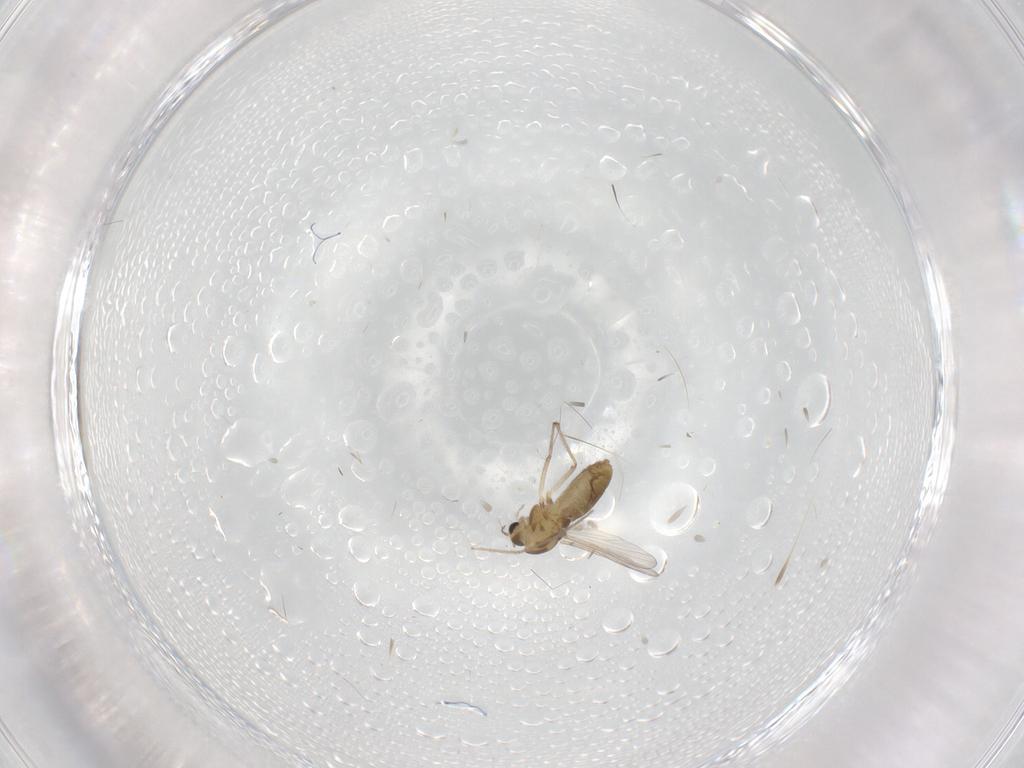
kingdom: Animalia
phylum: Arthropoda
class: Insecta
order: Diptera
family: Chironomidae
